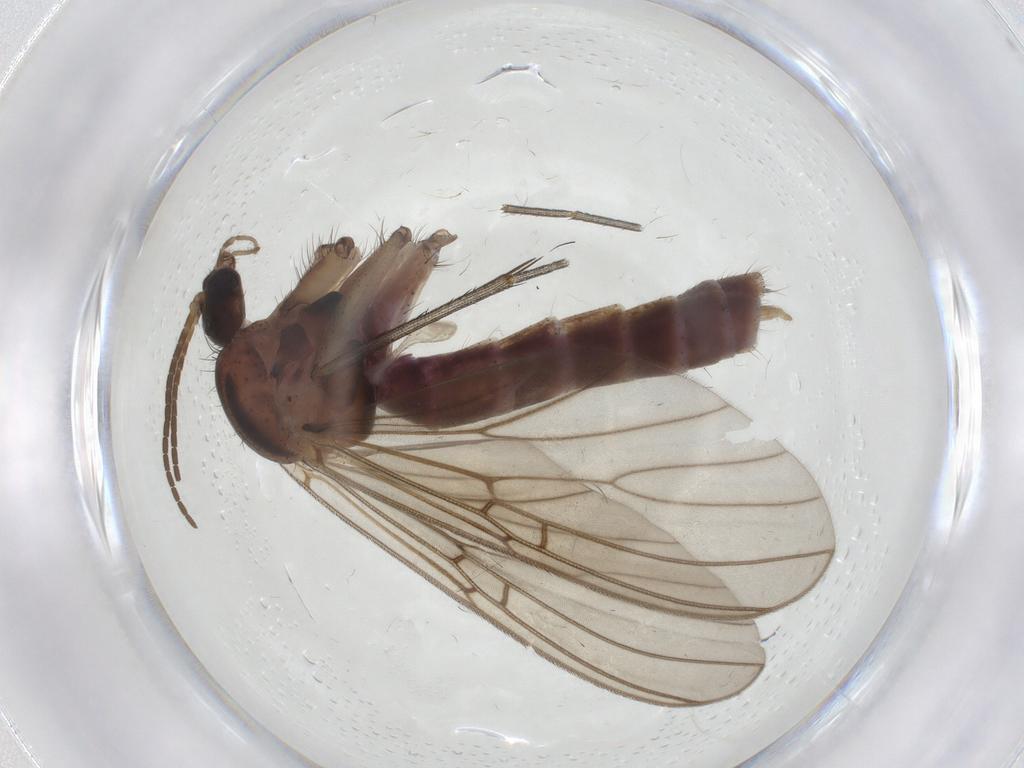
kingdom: Animalia
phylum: Arthropoda
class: Insecta
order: Diptera
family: Mycetophilidae
